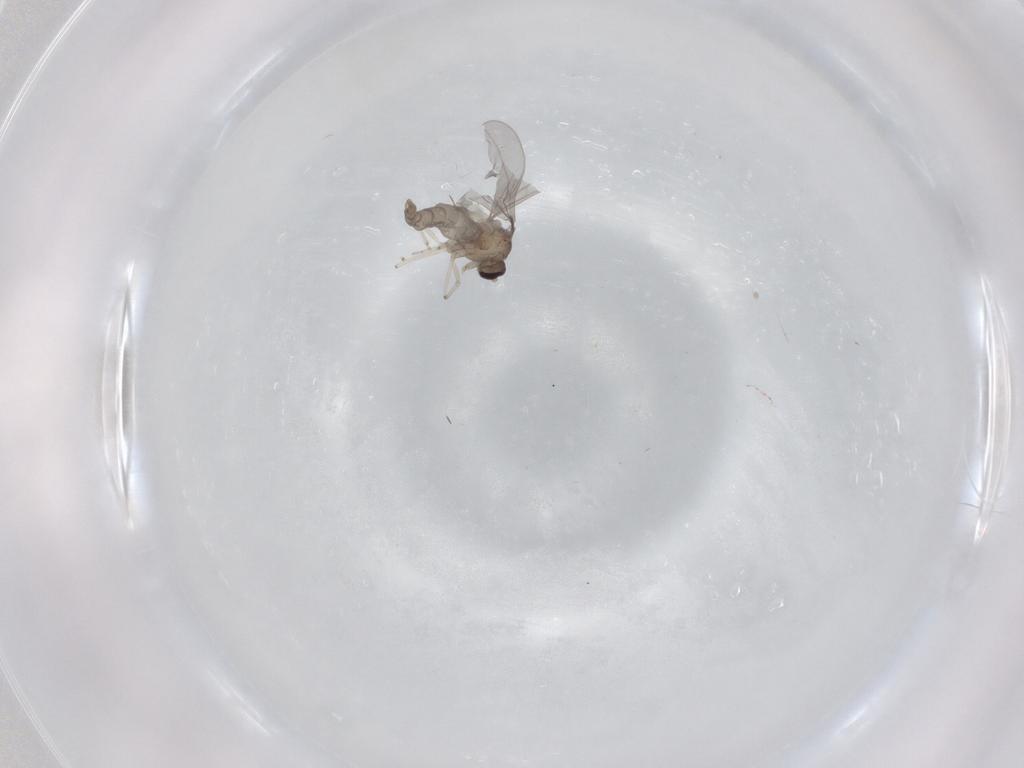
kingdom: Animalia
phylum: Arthropoda
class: Insecta
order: Diptera
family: Cecidomyiidae
